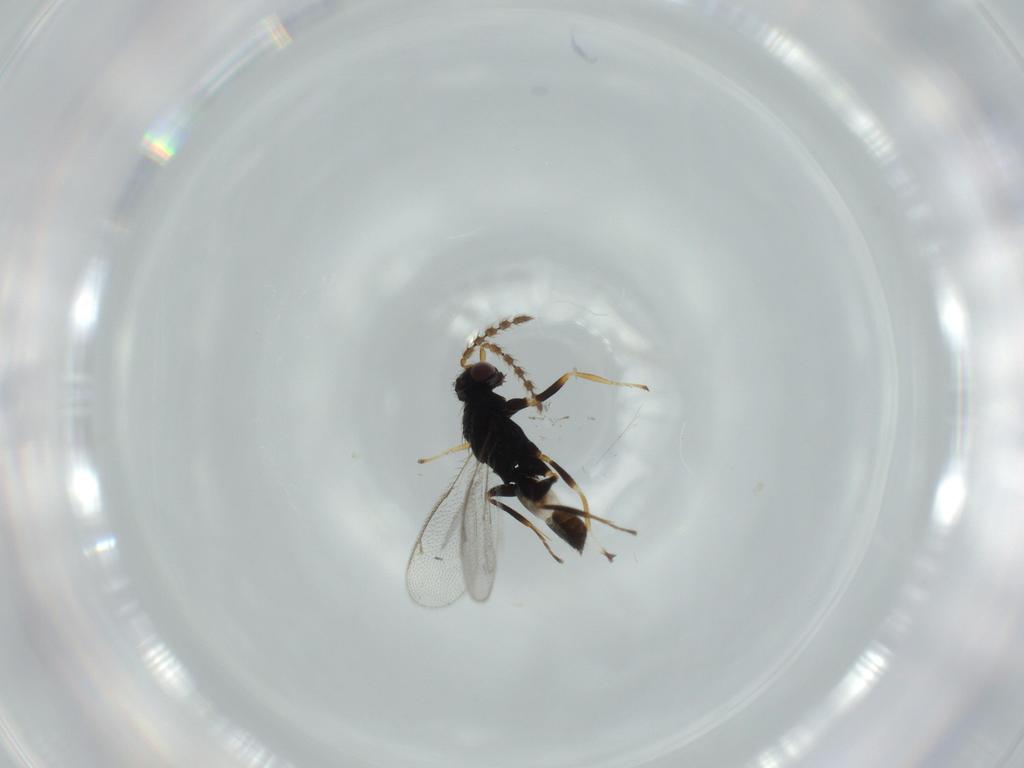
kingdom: Animalia
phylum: Arthropoda
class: Insecta
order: Hymenoptera
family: Eulophidae
